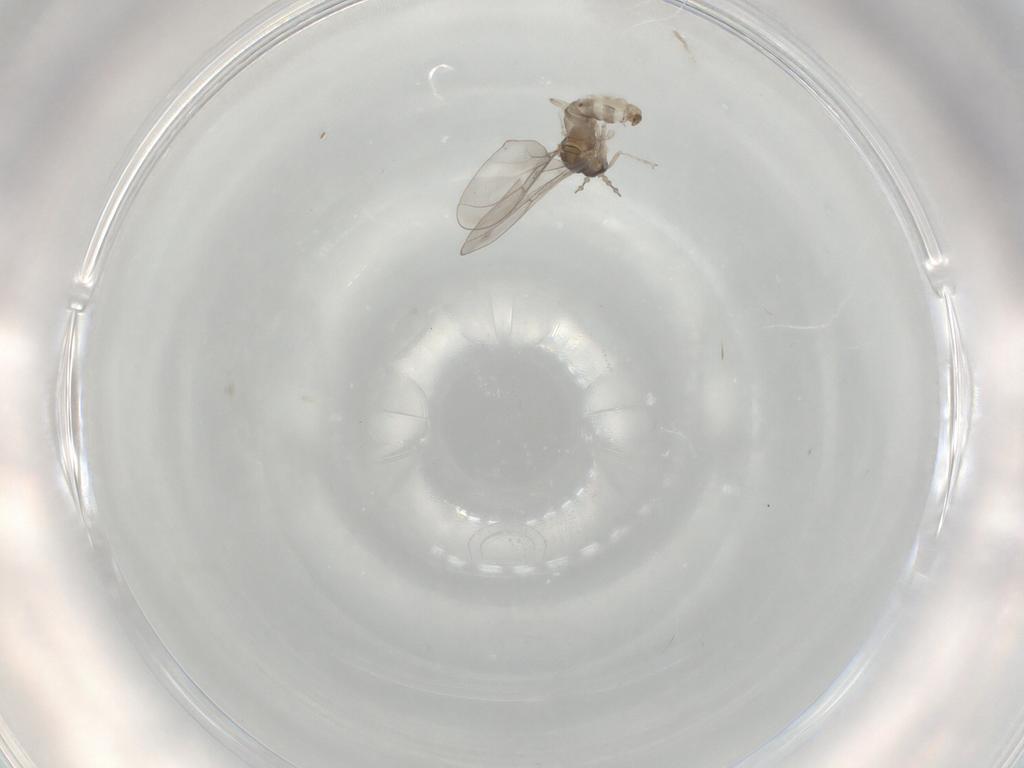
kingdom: Animalia
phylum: Arthropoda
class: Insecta
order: Diptera
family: Cecidomyiidae
